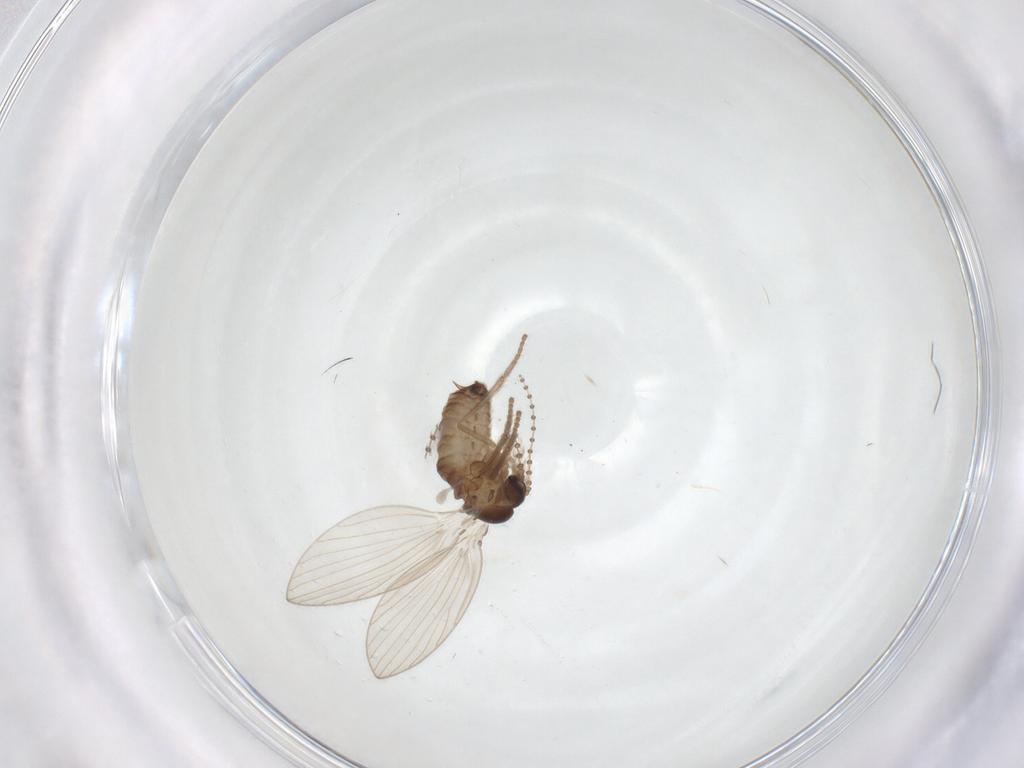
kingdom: Animalia
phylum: Arthropoda
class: Insecta
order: Diptera
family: Psychodidae
